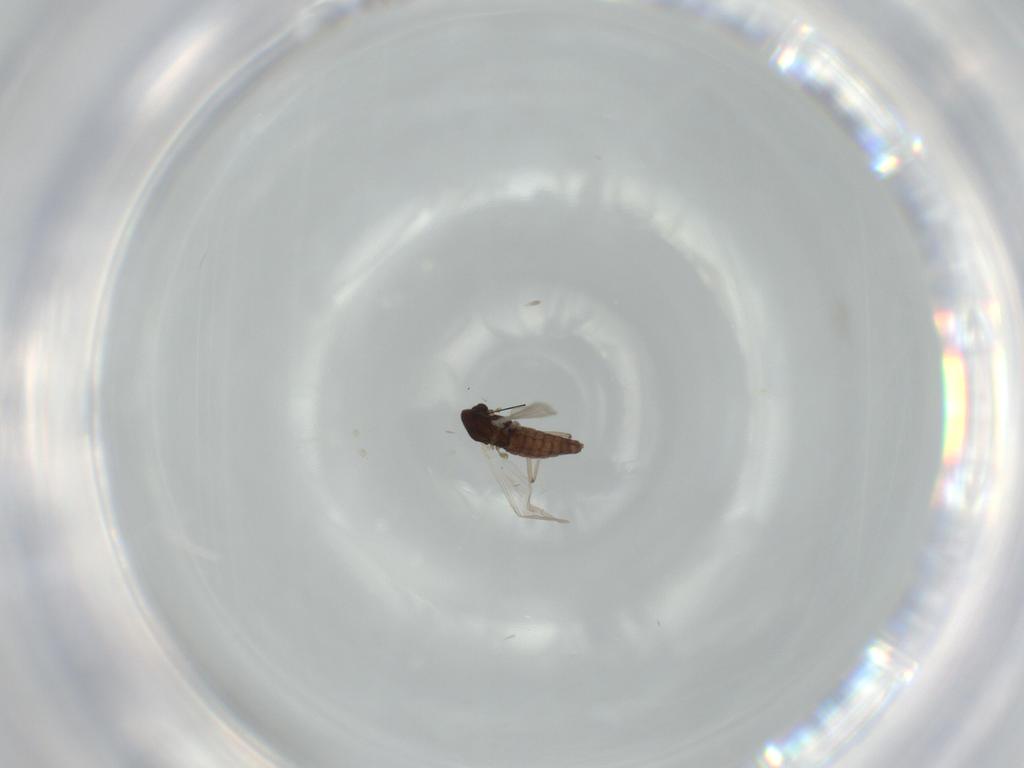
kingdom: Animalia
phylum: Arthropoda
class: Insecta
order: Diptera
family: Chironomidae
